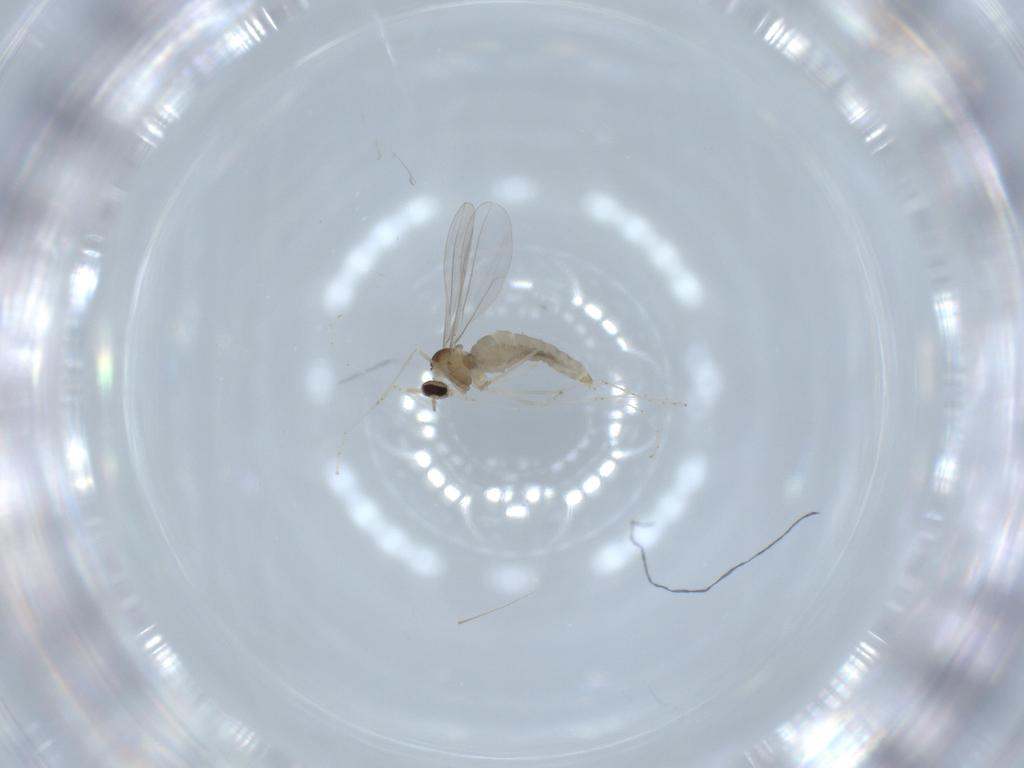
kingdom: Animalia
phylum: Arthropoda
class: Insecta
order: Diptera
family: Cecidomyiidae
